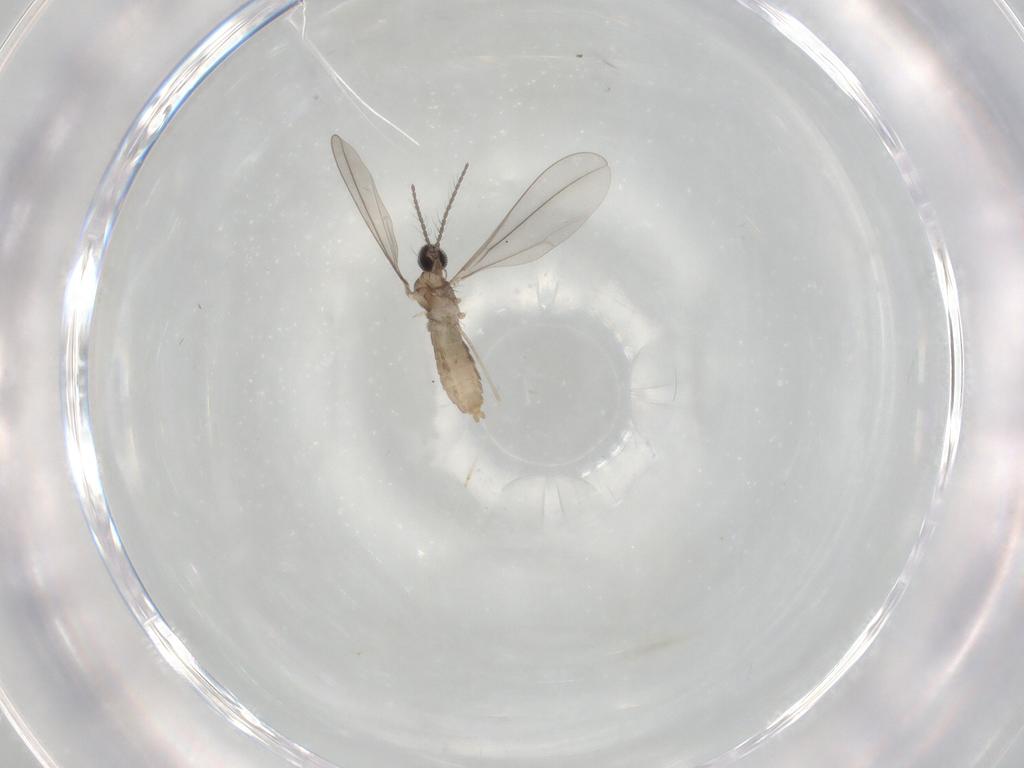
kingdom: Animalia
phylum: Arthropoda
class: Insecta
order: Diptera
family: Cecidomyiidae
